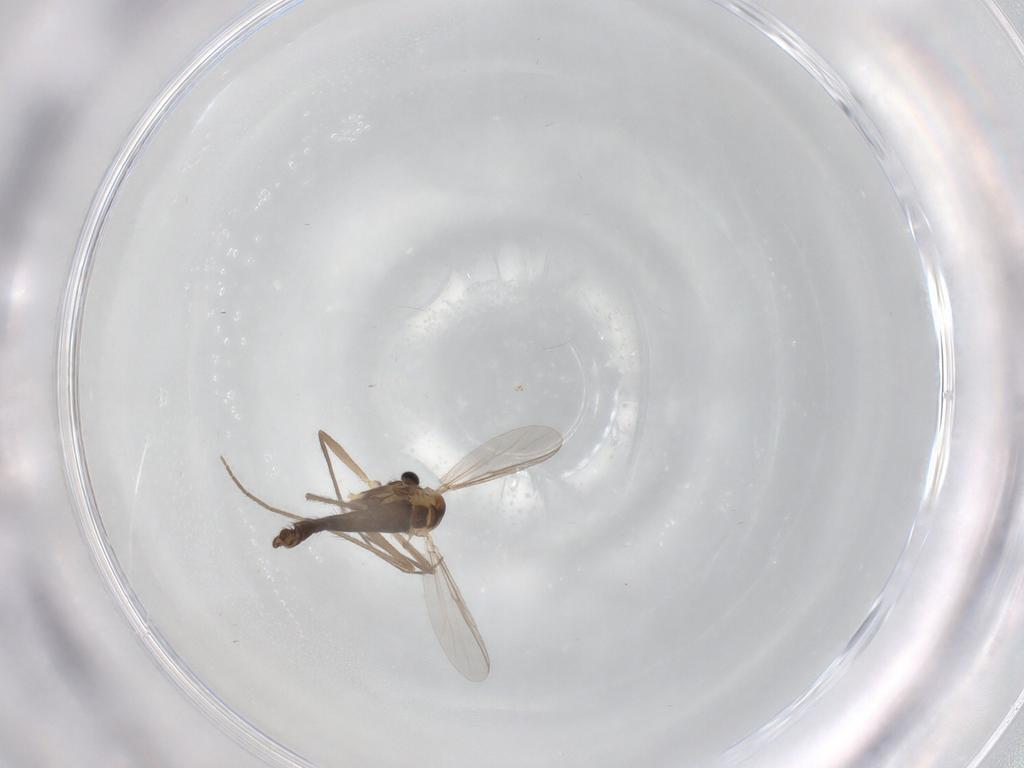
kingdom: Animalia
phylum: Arthropoda
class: Insecta
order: Diptera
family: Chironomidae
